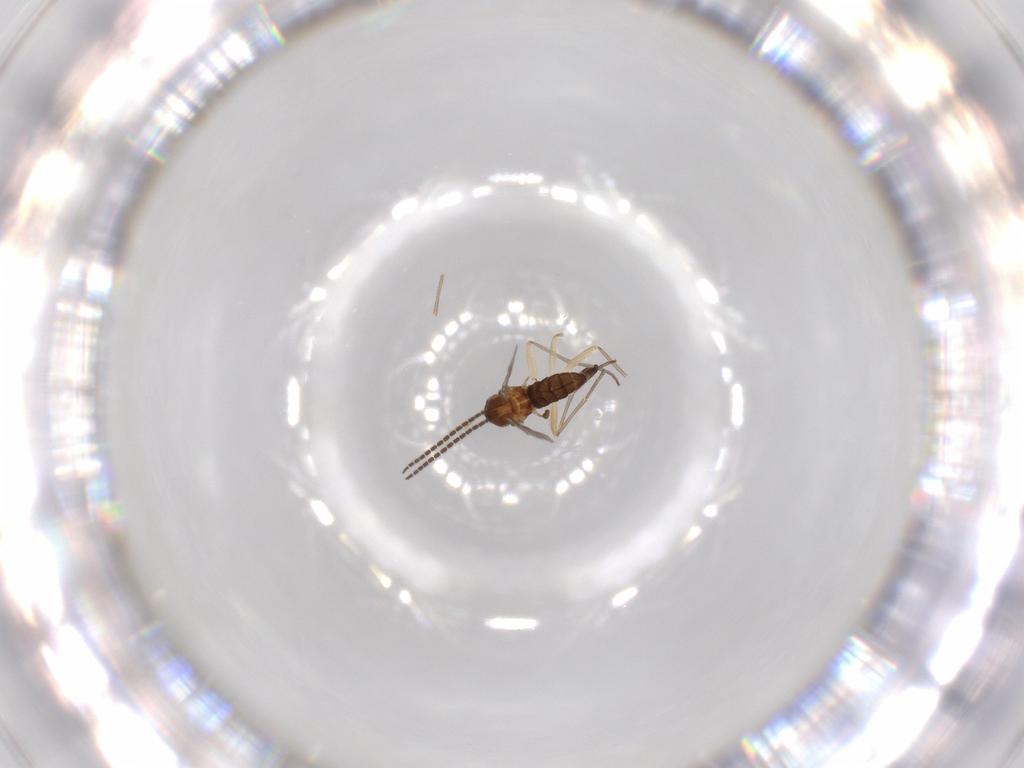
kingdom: Animalia
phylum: Arthropoda
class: Insecta
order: Diptera
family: Sciaridae
